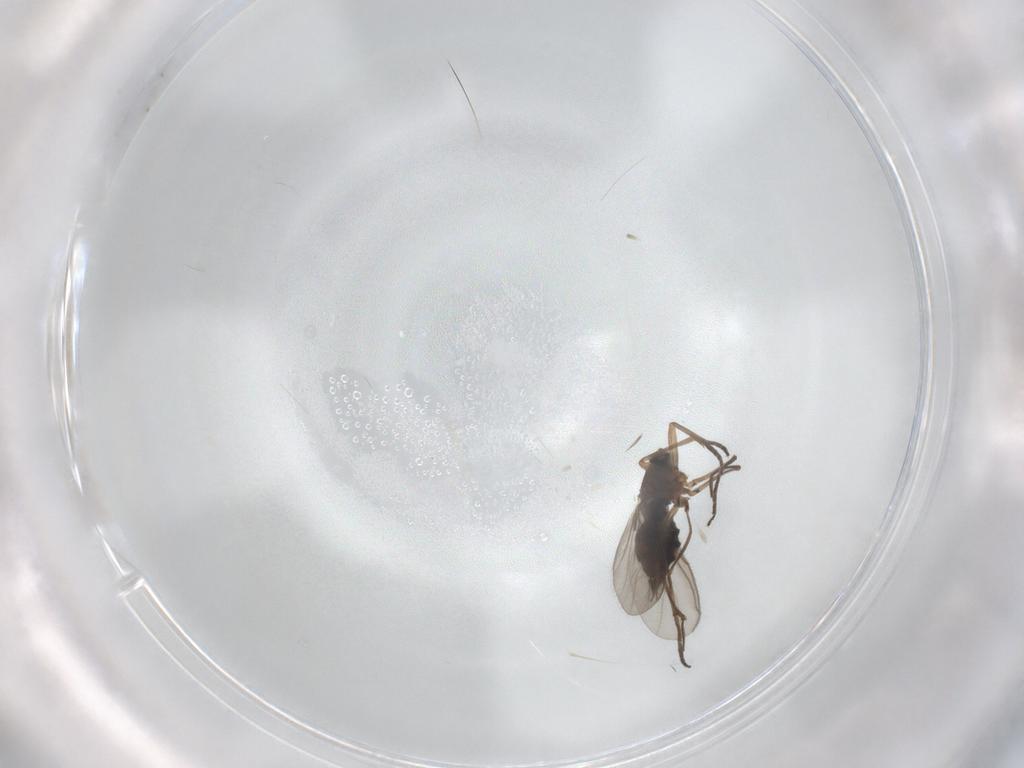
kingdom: Animalia
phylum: Arthropoda
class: Insecta
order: Diptera
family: Sciaridae
